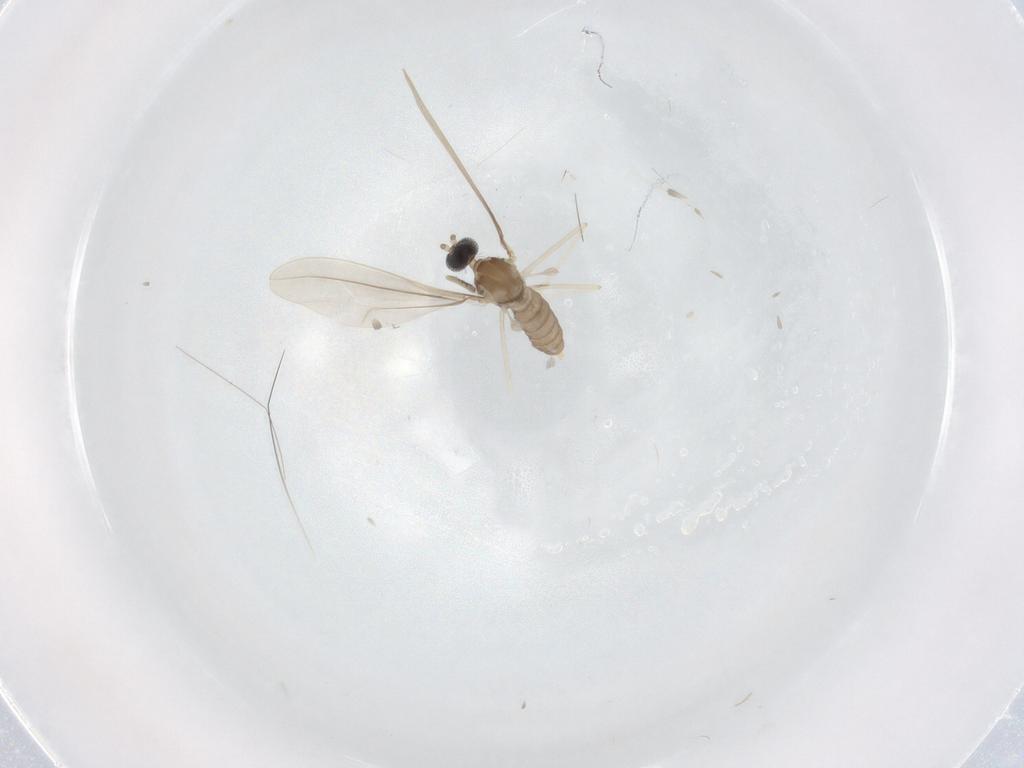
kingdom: Animalia
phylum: Arthropoda
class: Insecta
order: Diptera
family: Cecidomyiidae
